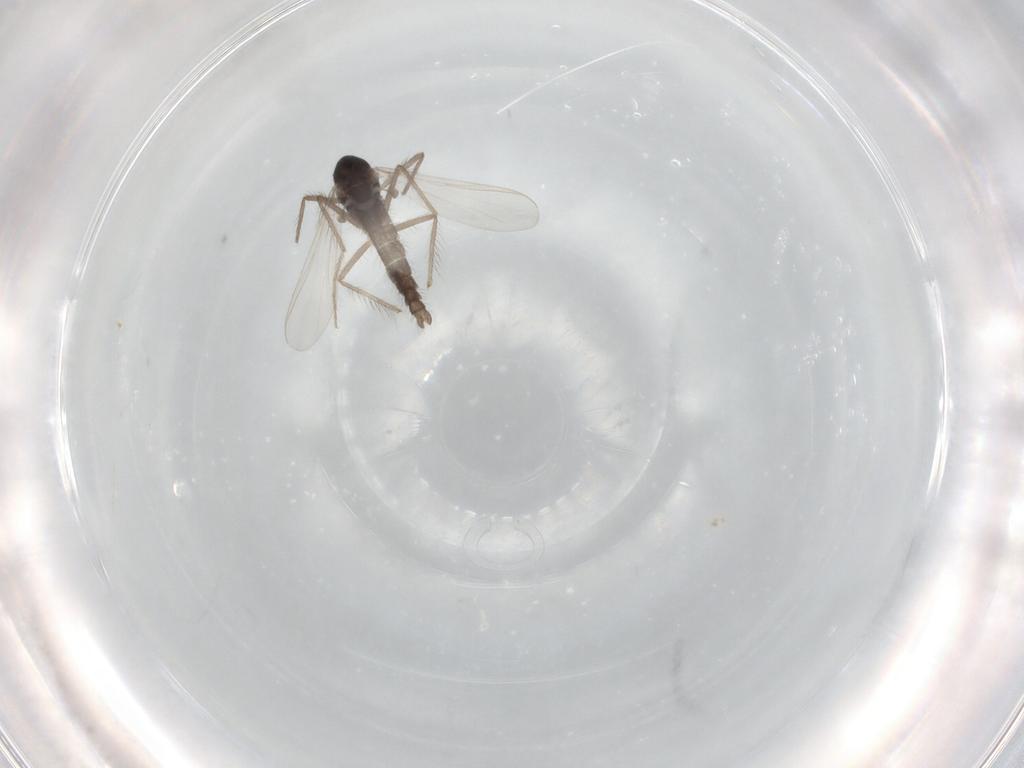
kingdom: Animalia
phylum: Arthropoda
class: Insecta
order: Diptera
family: Chironomidae
